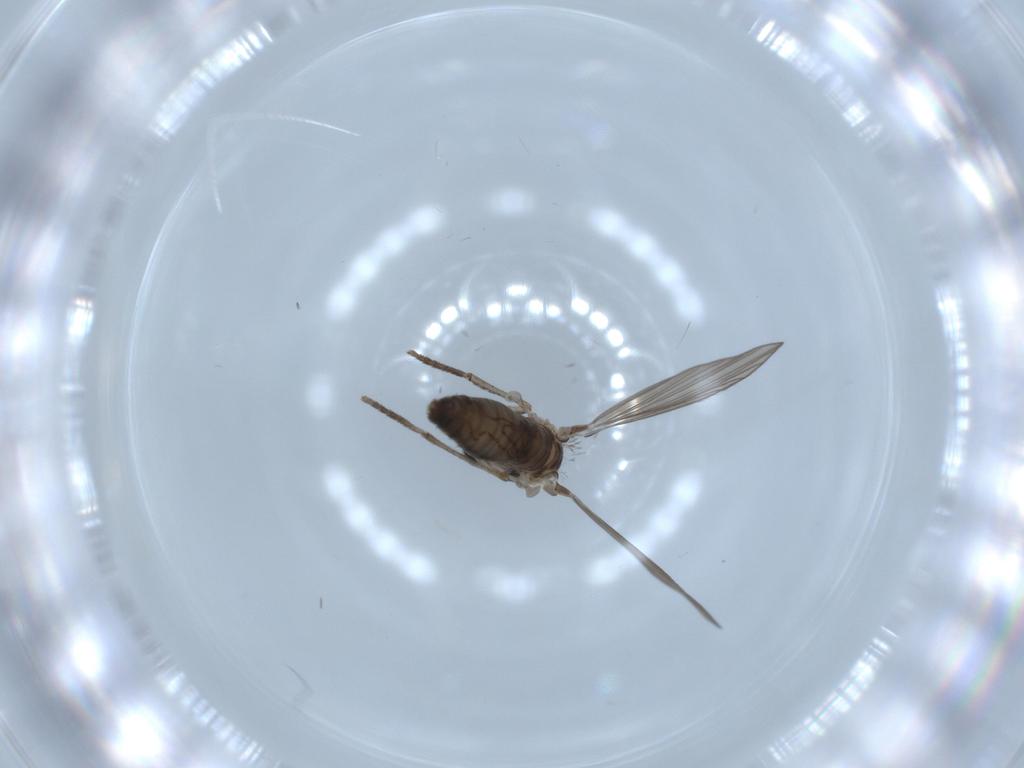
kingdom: Animalia
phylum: Arthropoda
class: Insecta
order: Diptera
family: Psychodidae
